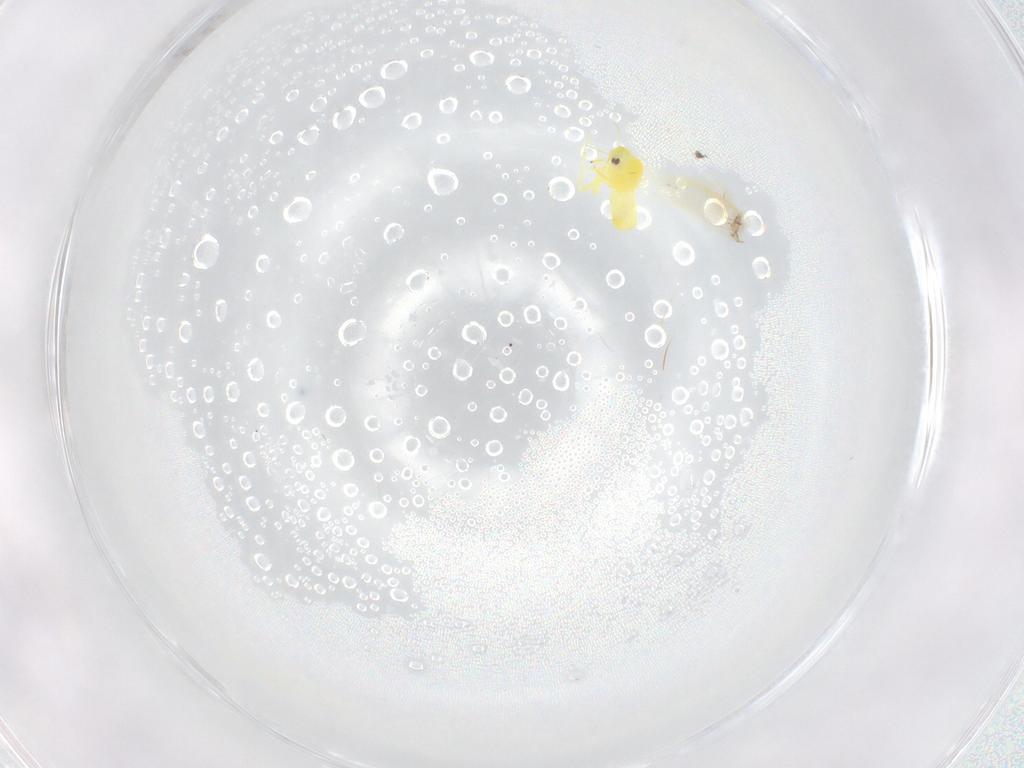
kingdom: Animalia
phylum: Arthropoda
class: Insecta
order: Hemiptera
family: Aleyrodidae
